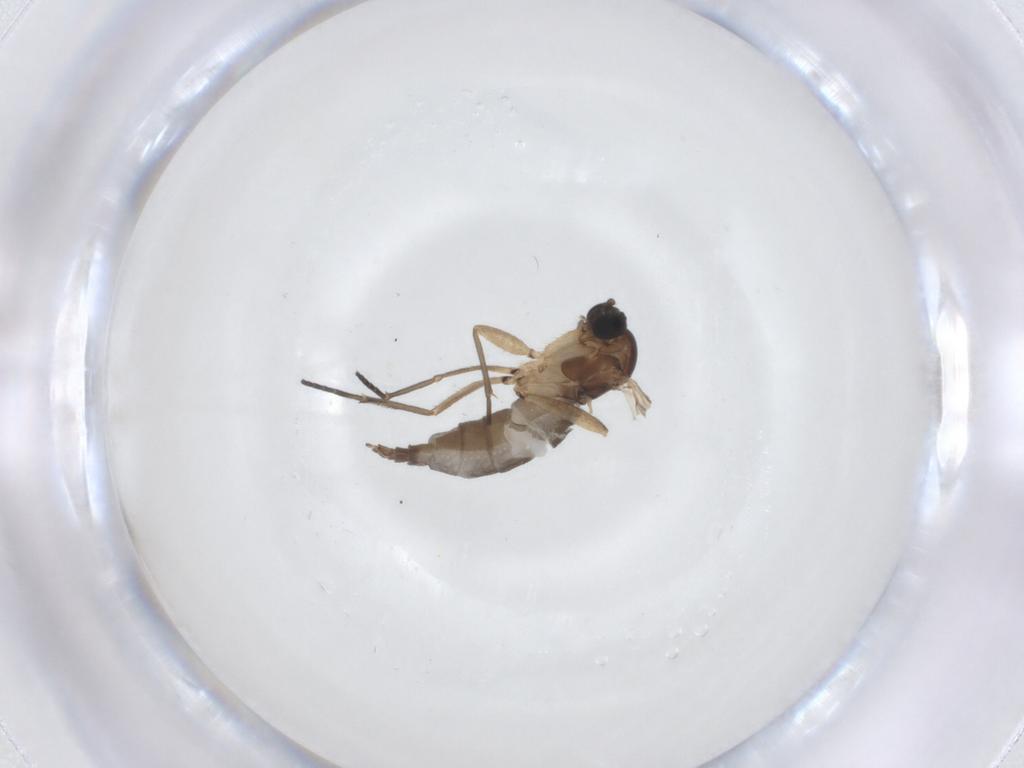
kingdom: Animalia
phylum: Arthropoda
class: Insecta
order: Diptera
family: Sciaridae
